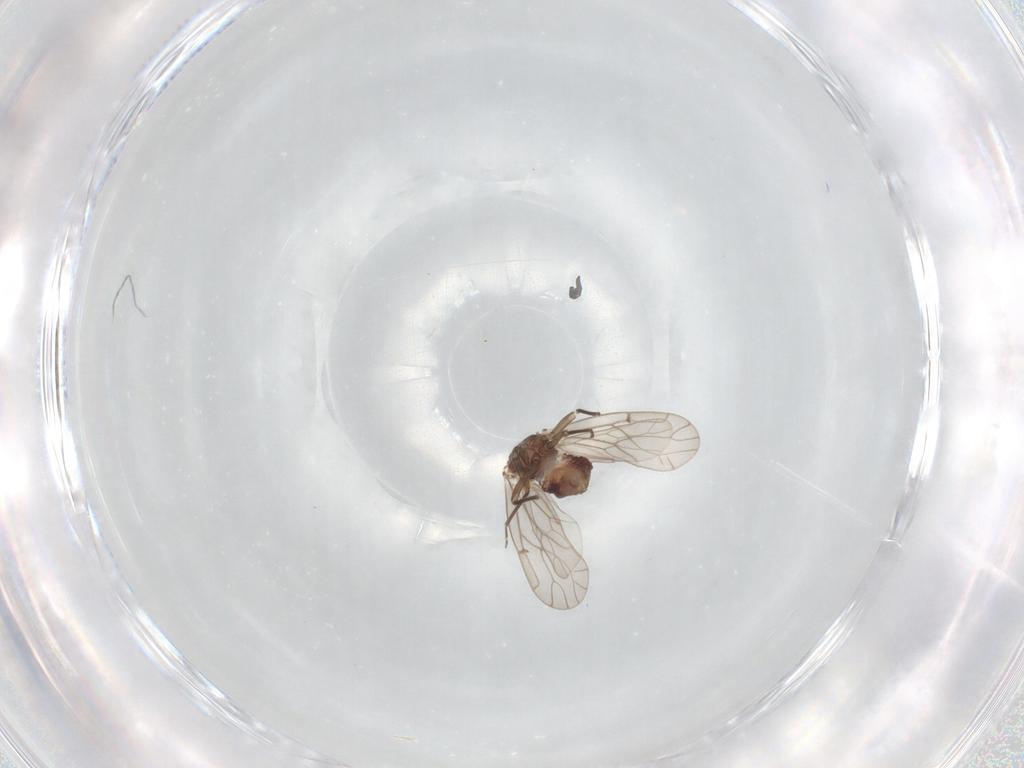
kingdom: Animalia
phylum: Arthropoda
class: Insecta
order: Psocodea
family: Ectopsocidae
